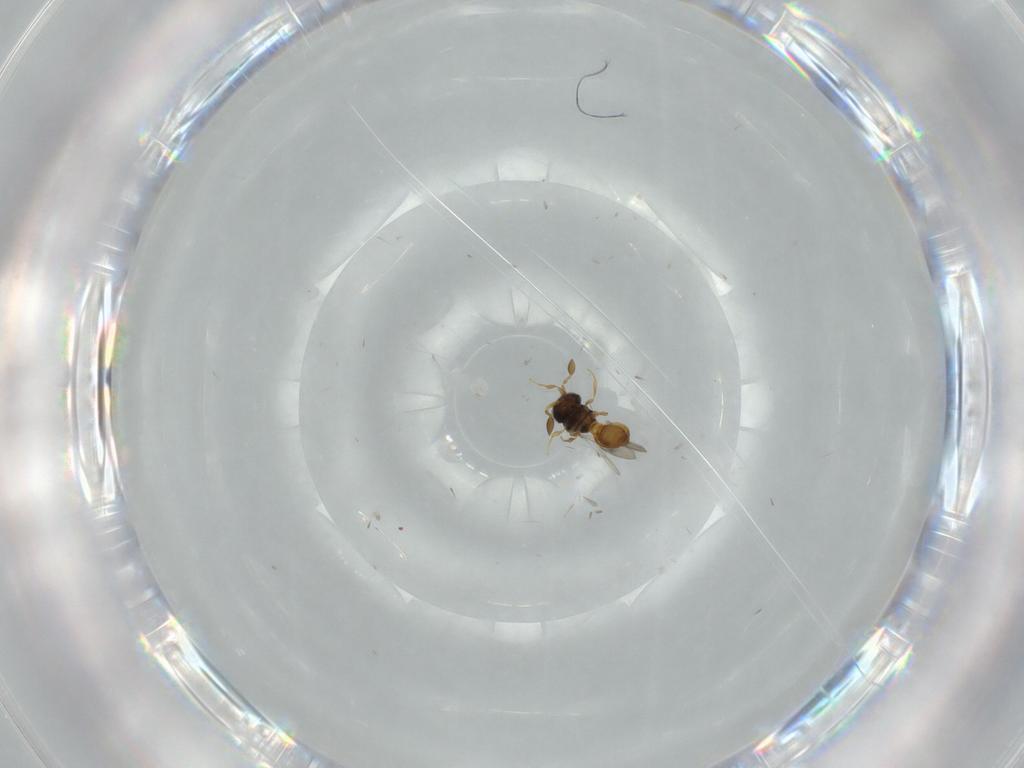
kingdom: Animalia
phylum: Arthropoda
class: Insecta
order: Hymenoptera
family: Scelionidae
